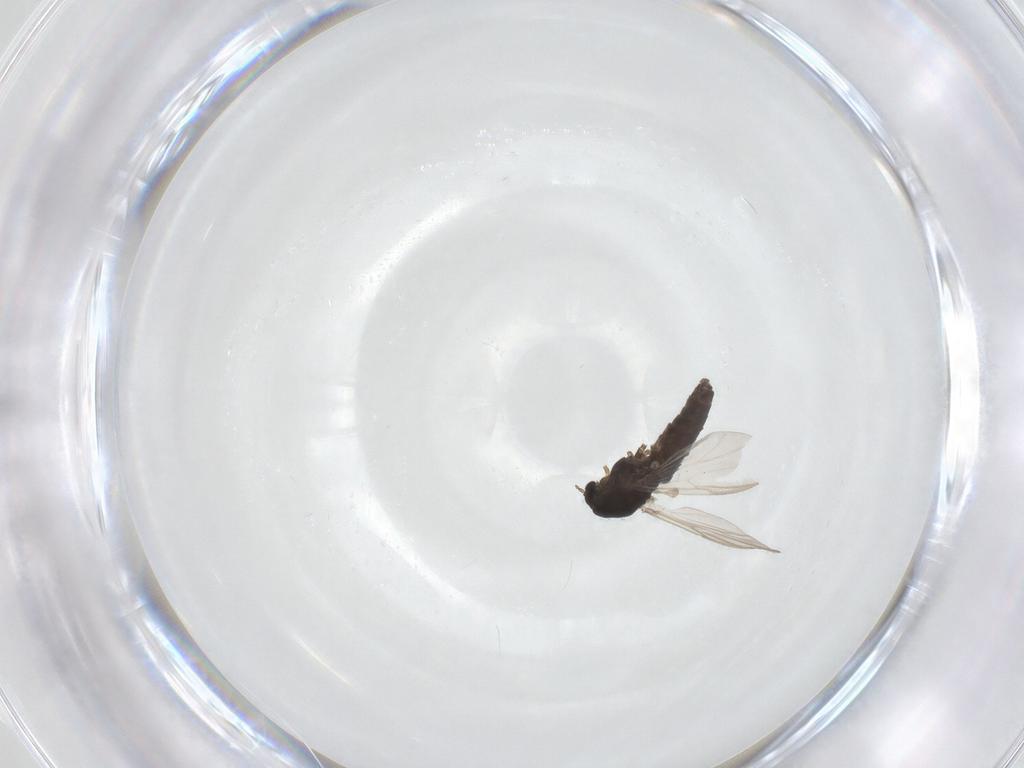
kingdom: Animalia
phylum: Arthropoda
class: Insecta
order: Diptera
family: Chironomidae
